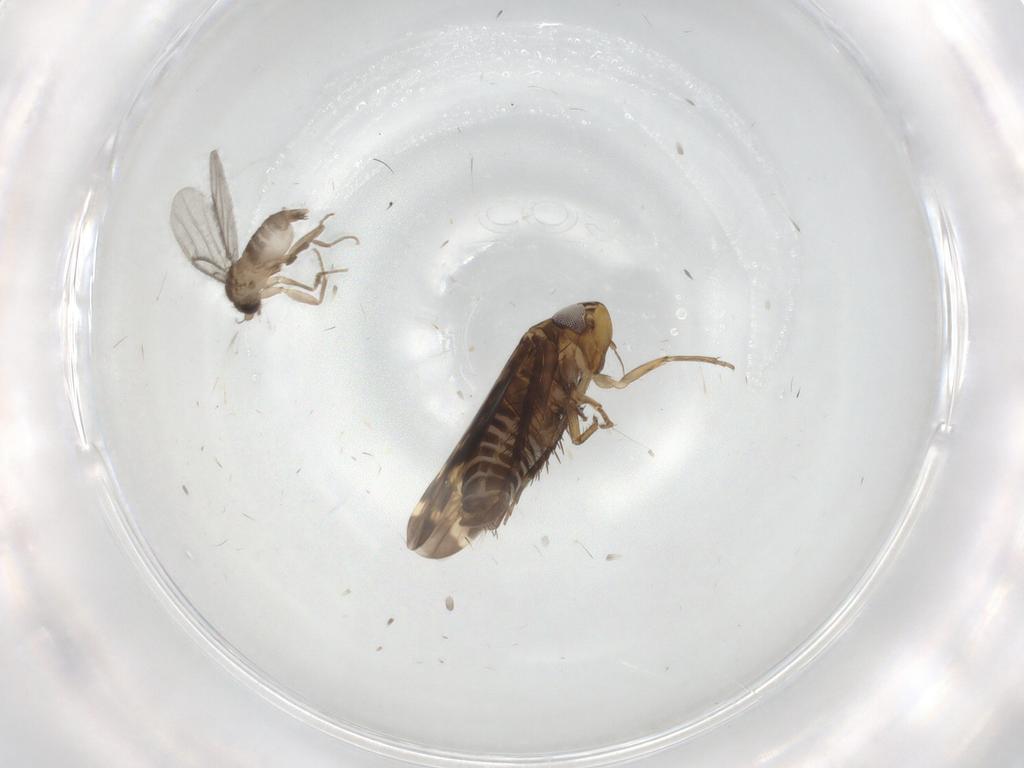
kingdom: Animalia
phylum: Arthropoda
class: Insecta
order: Hemiptera
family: Cicadellidae
